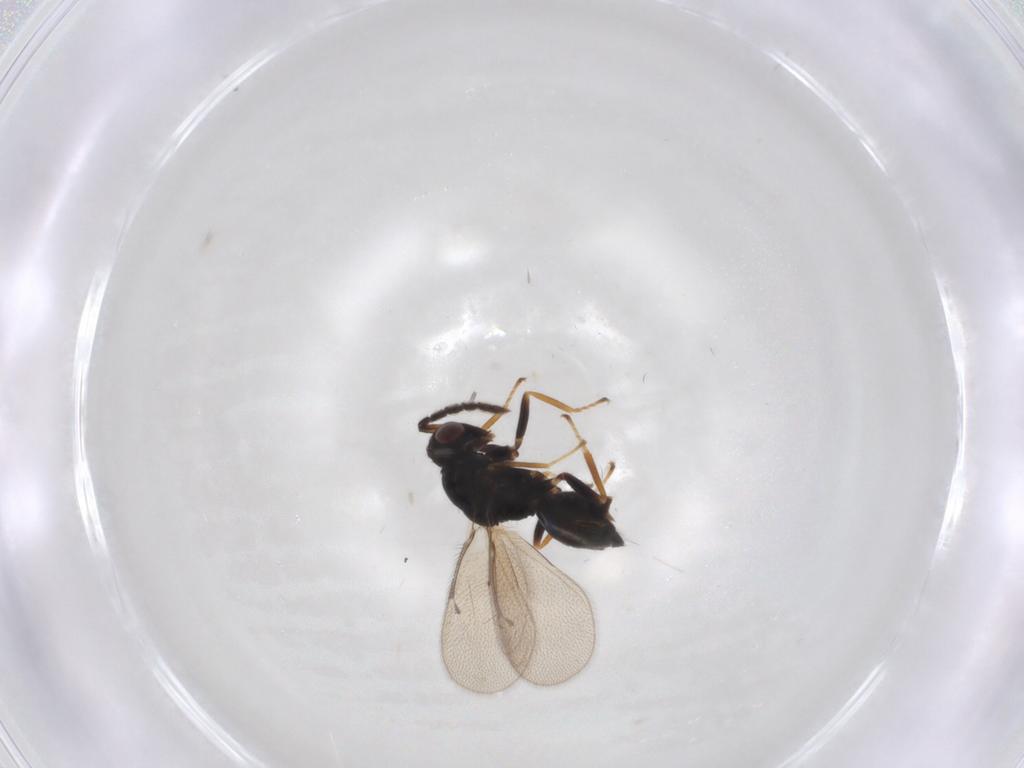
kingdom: Animalia
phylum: Arthropoda
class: Insecta
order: Hymenoptera
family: Eulophidae
